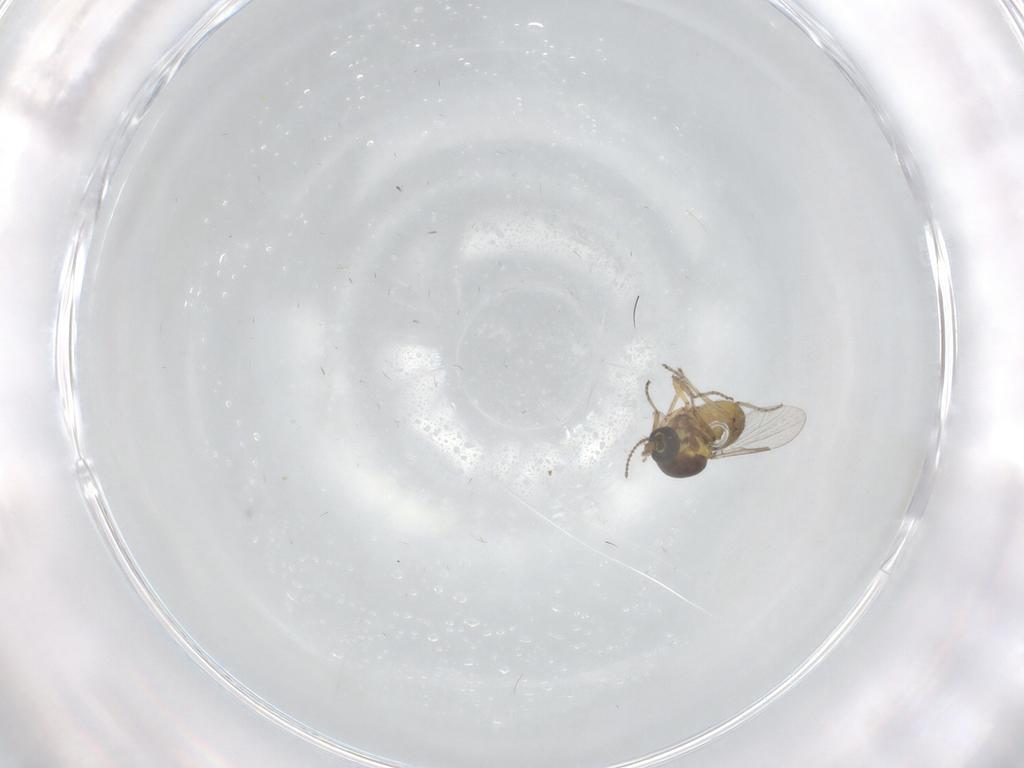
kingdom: Animalia
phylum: Arthropoda
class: Insecta
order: Diptera
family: Ceratopogonidae
